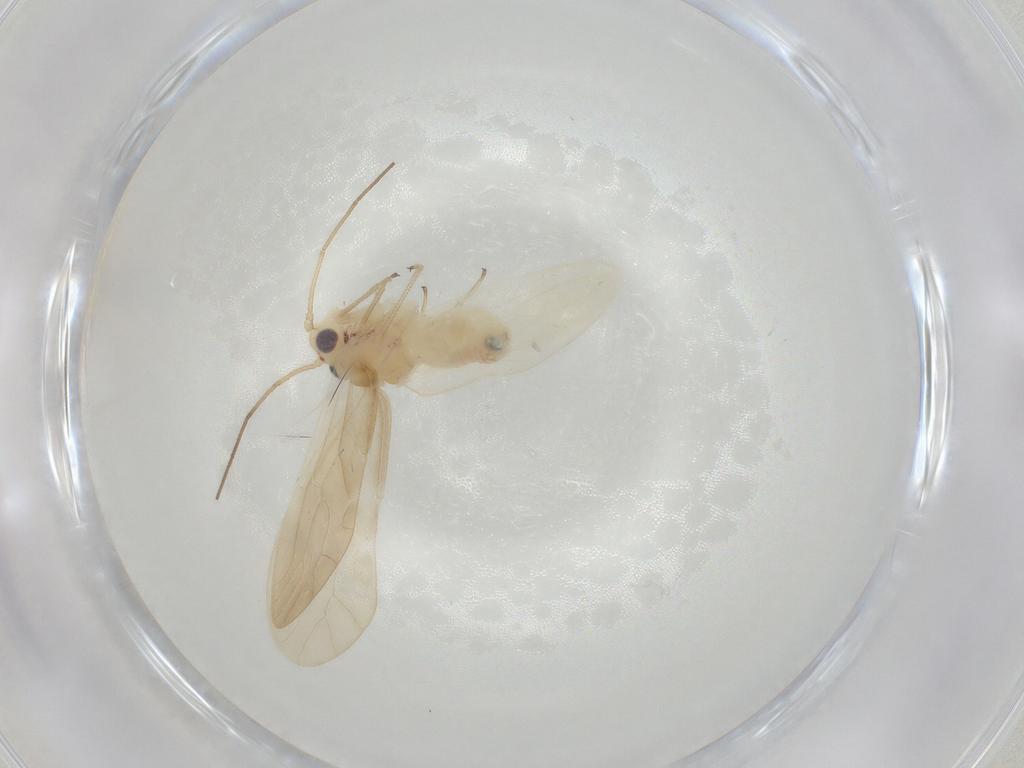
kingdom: Animalia
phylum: Arthropoda
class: Insecta
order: Psocodea
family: Caeciliusidae
